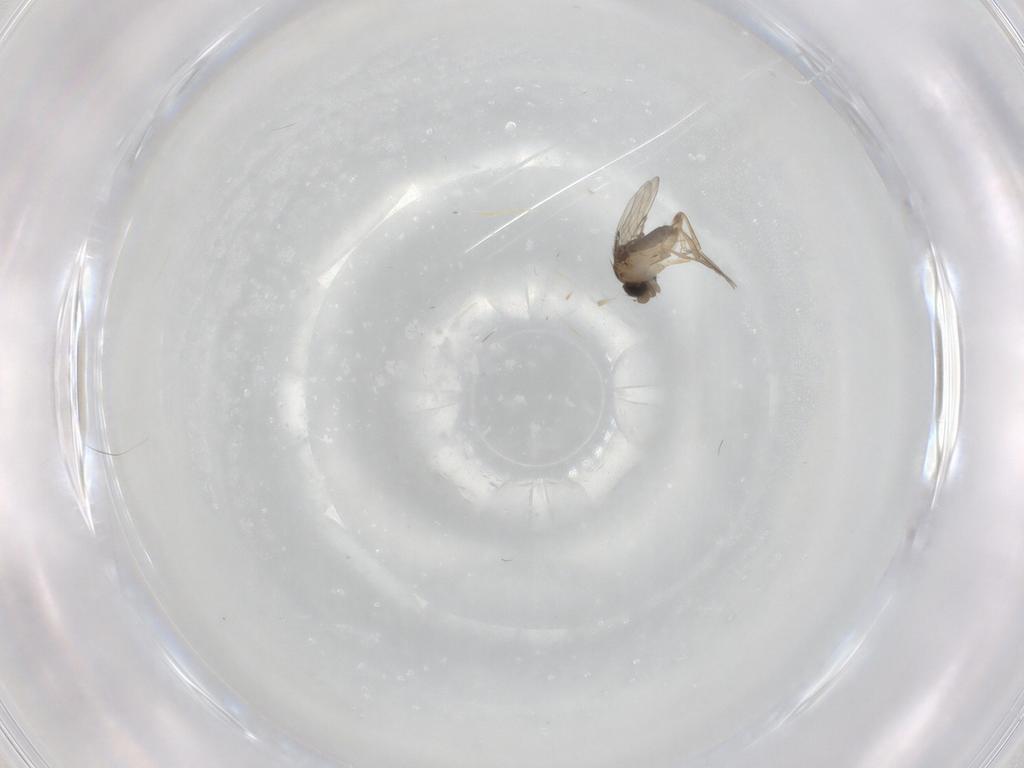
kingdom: Animalia
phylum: Arthropoda
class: Insecta
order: Diptera
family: Phoridae
